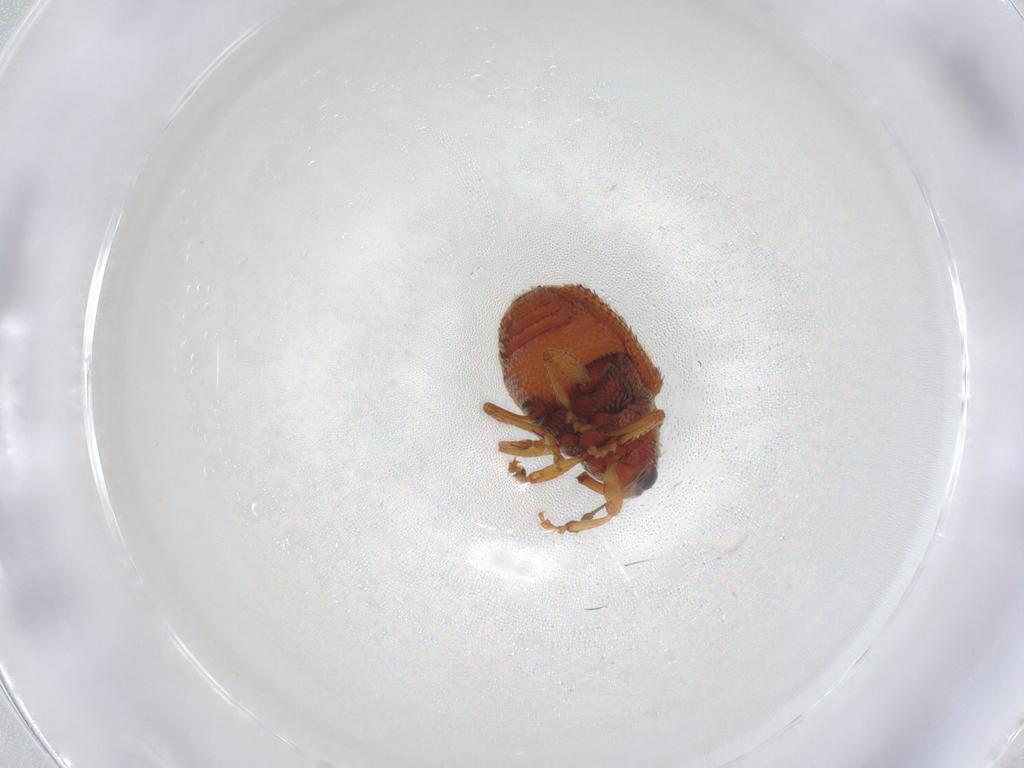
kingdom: Animalia
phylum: Arthropoda
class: Insecta
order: Coleoptera
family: Curculionidae
